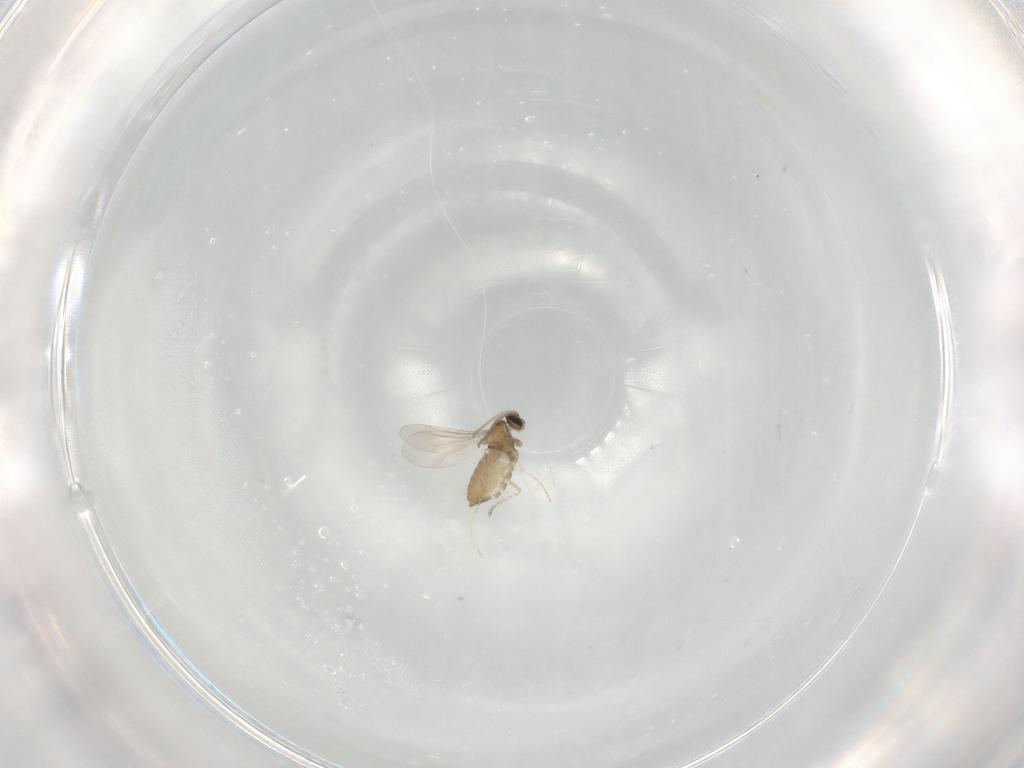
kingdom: Animalia
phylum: Arthropoda
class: Insecta
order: Diptera
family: Cecidomyiidae
